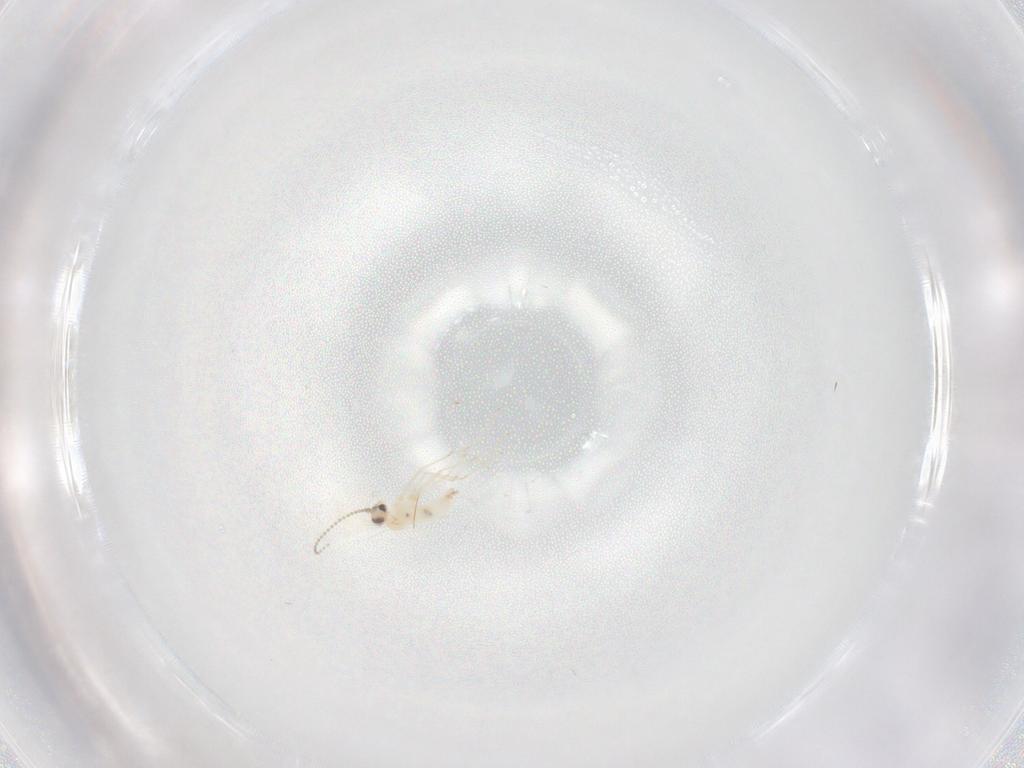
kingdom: Animalia
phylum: Arthropoda
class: Insecta
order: Diptera
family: Cecidomyiidae
